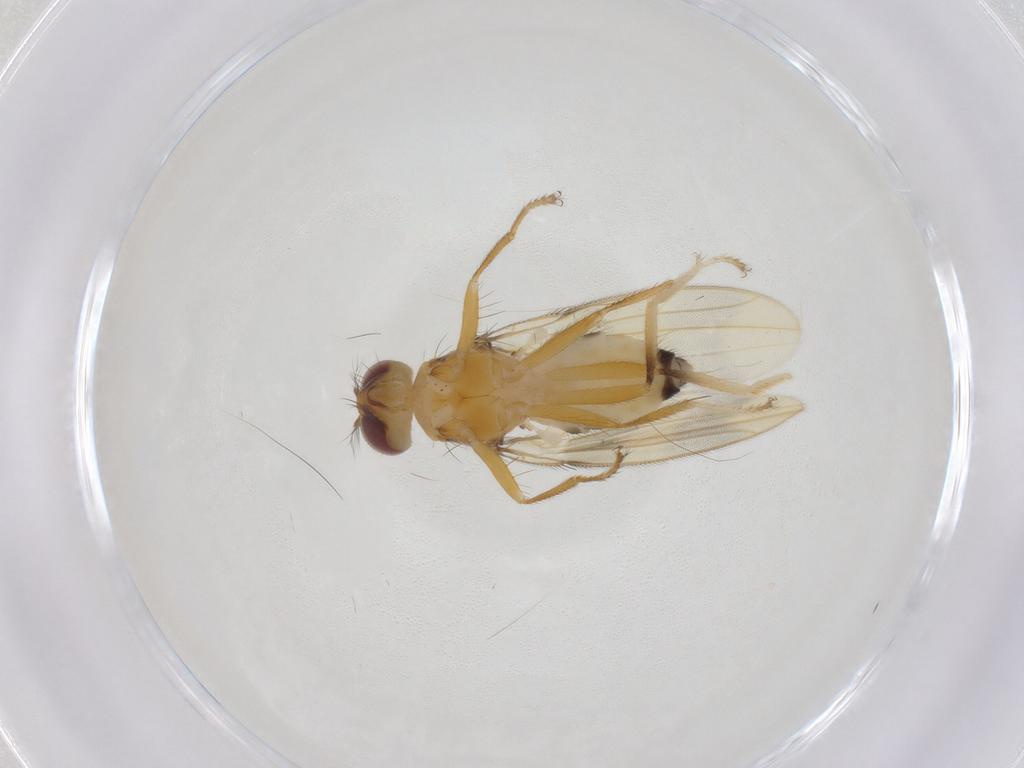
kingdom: Animalia
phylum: Arthropoda
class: Insecta
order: Diptera
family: Periscelididae
